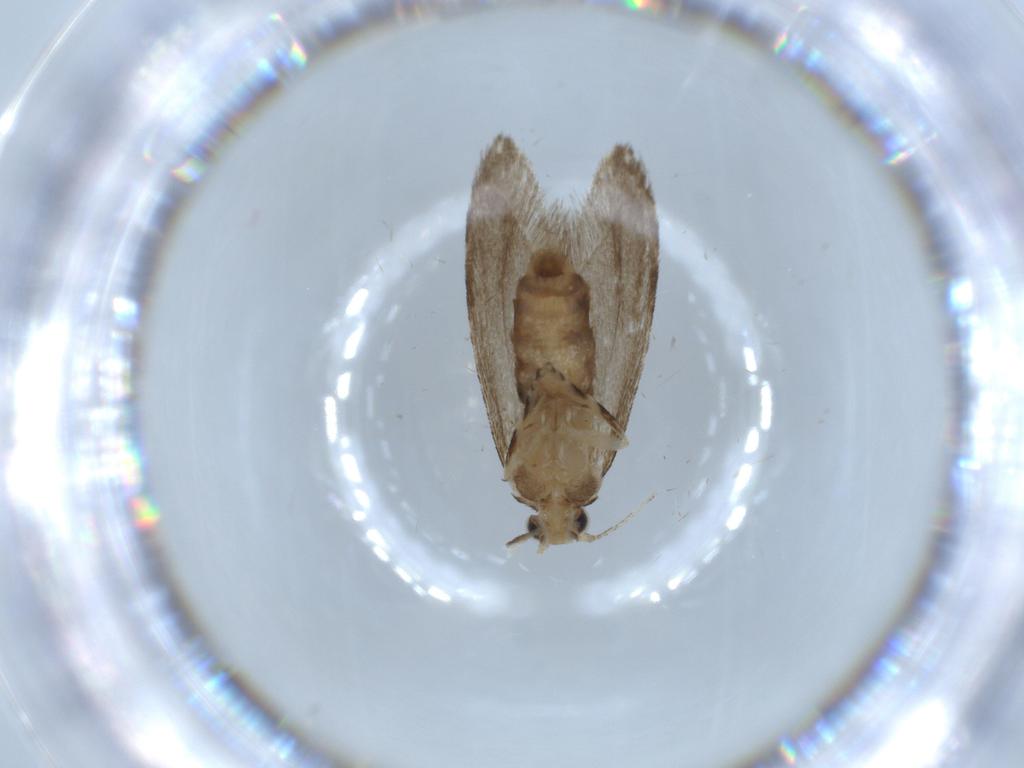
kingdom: Animalia
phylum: Arthropoda
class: Insecta
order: Lepidoptera
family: Tineidae
